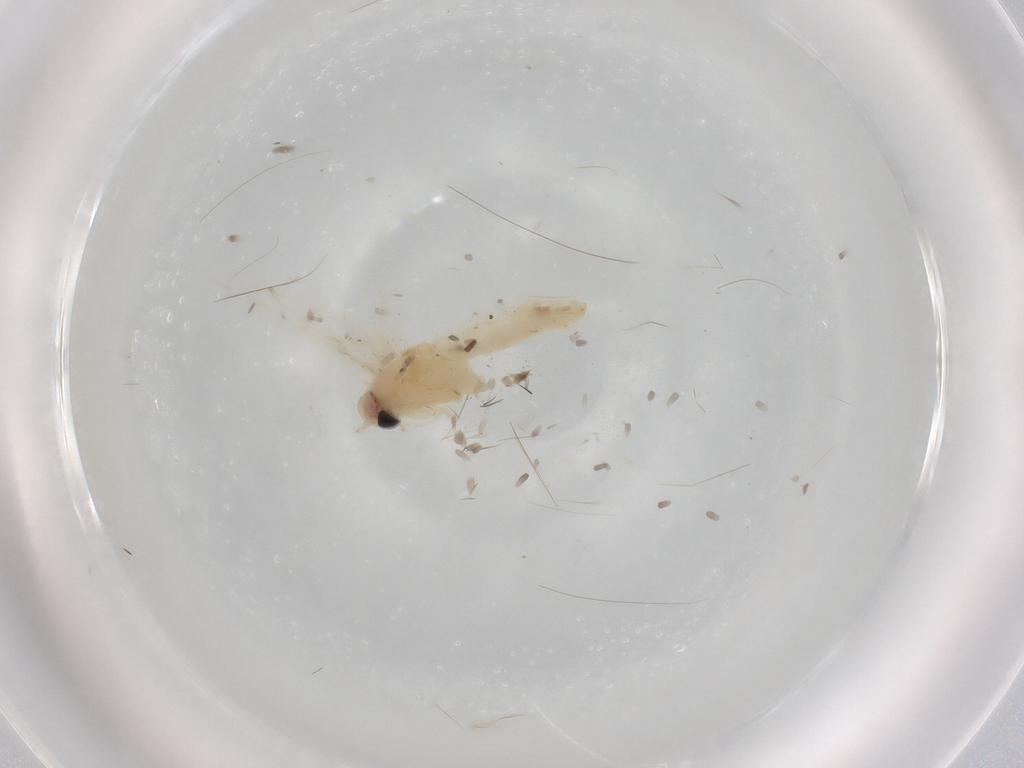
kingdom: Animalia
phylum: Arthropoda
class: Insecta
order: Lepidoptera
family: Gracillariidae
